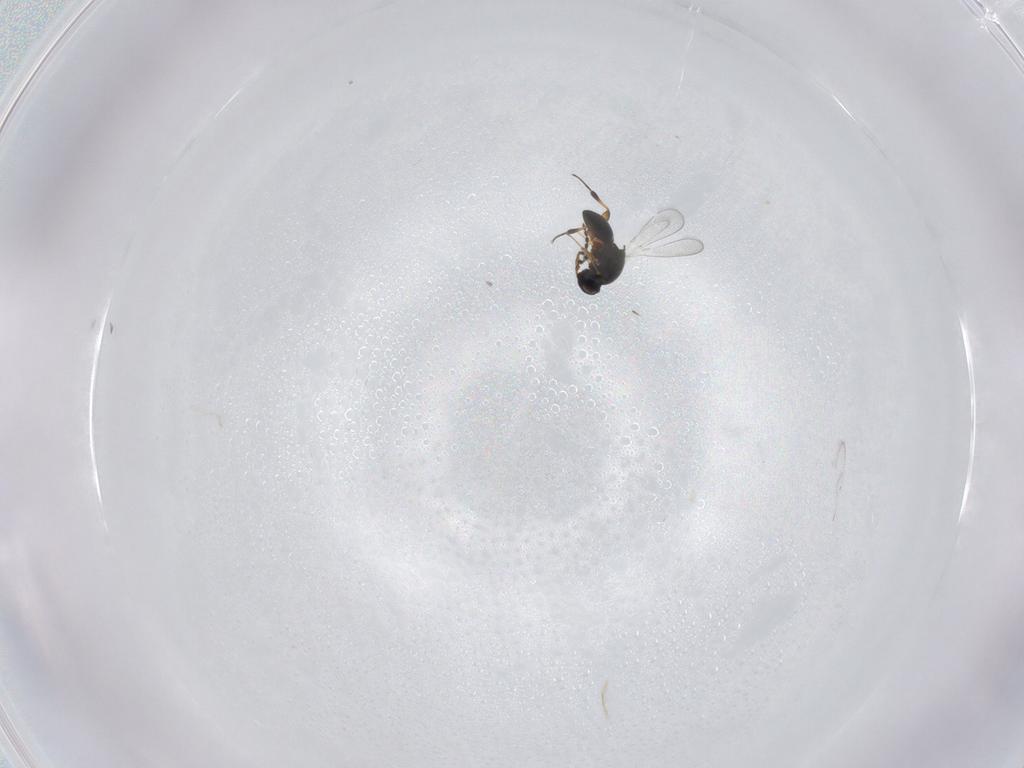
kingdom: Animalia
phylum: Arthropoda
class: Insecta
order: Hymenoptera
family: Platygastridae
